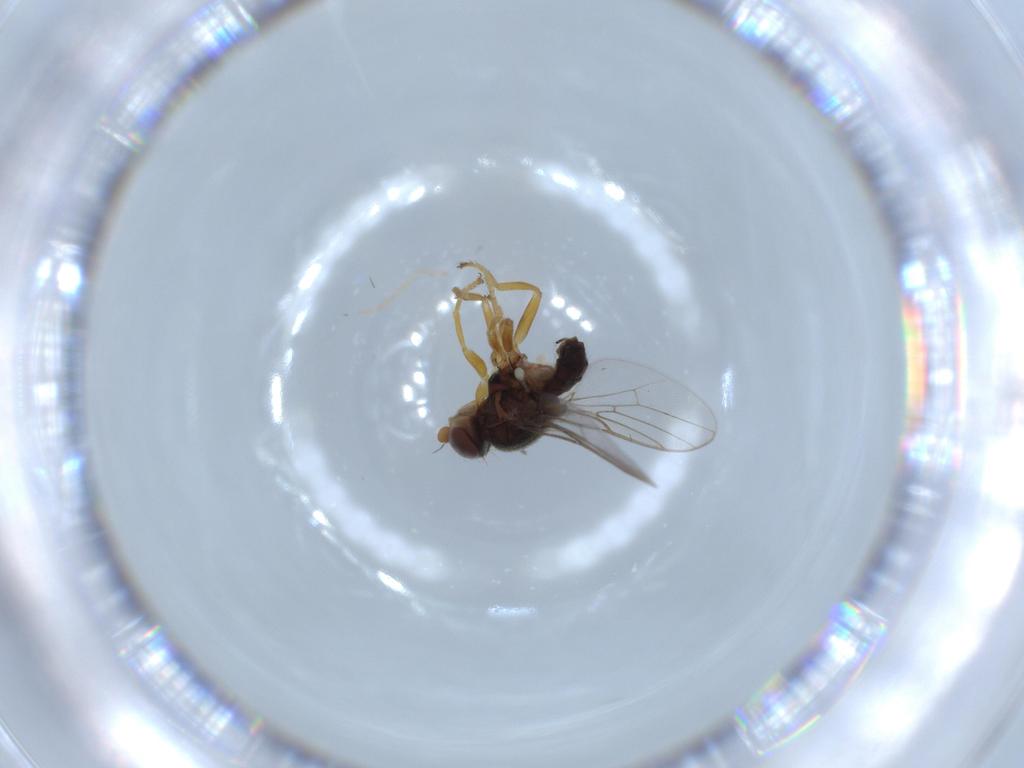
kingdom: Animalia
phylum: Arthropoda
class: Insecta
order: Diptera
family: Chloropidae
